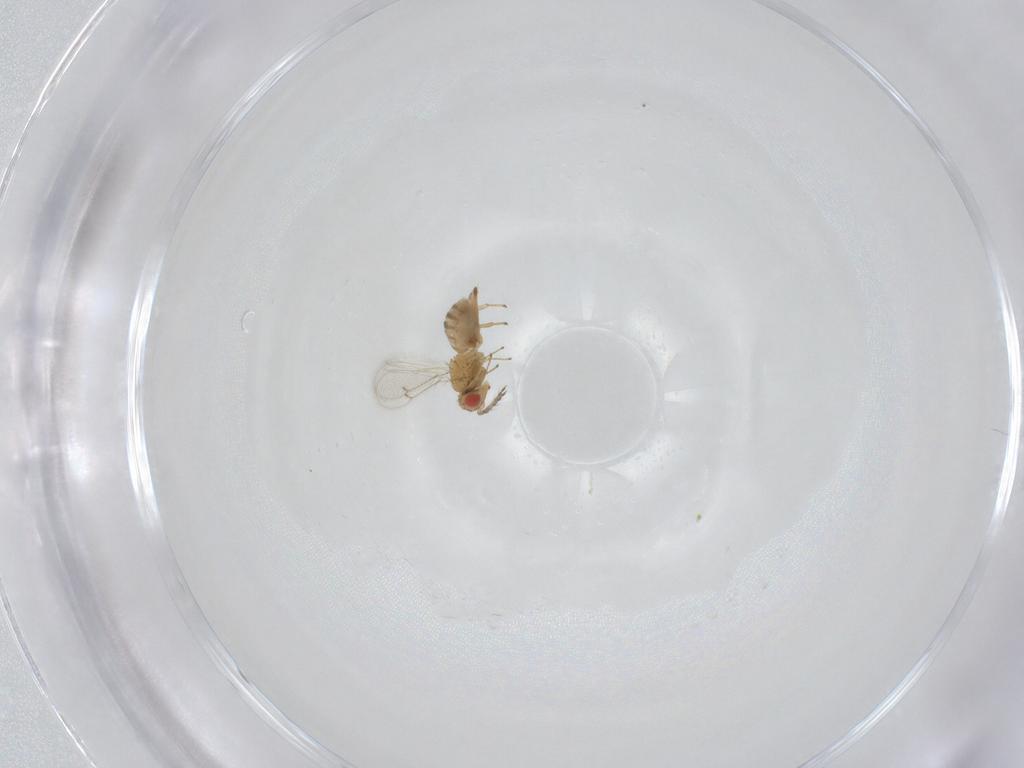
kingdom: Animalia
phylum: Arthropoda
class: Insecta
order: Hymenoptera
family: Eulophidae
